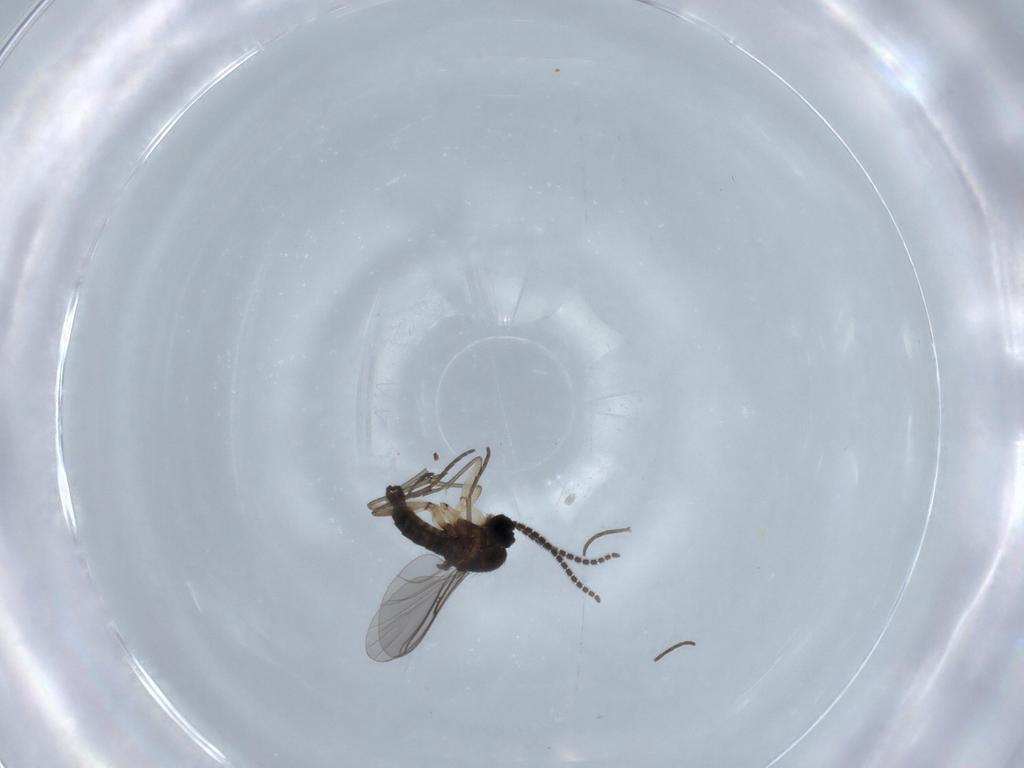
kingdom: Animalia
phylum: Arthropoda
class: Insecta
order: Diptera
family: Sciaridae
